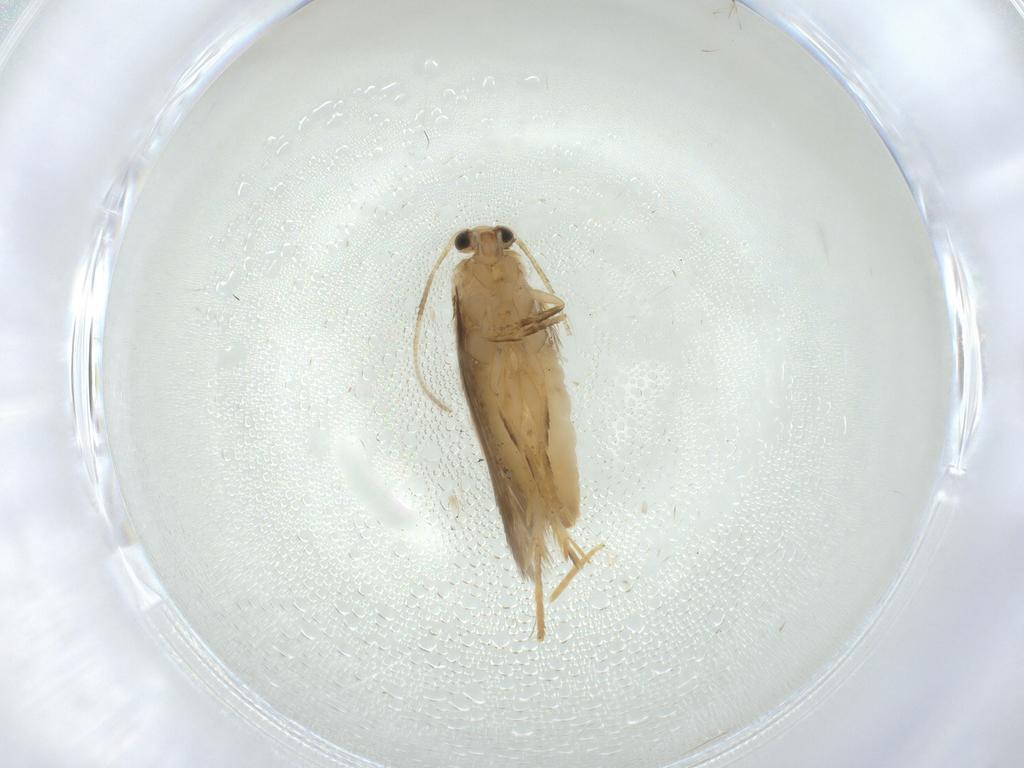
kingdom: Animalia
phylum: Arthropoda
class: Insecta
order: Lepidoptera
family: Nepticulidae
